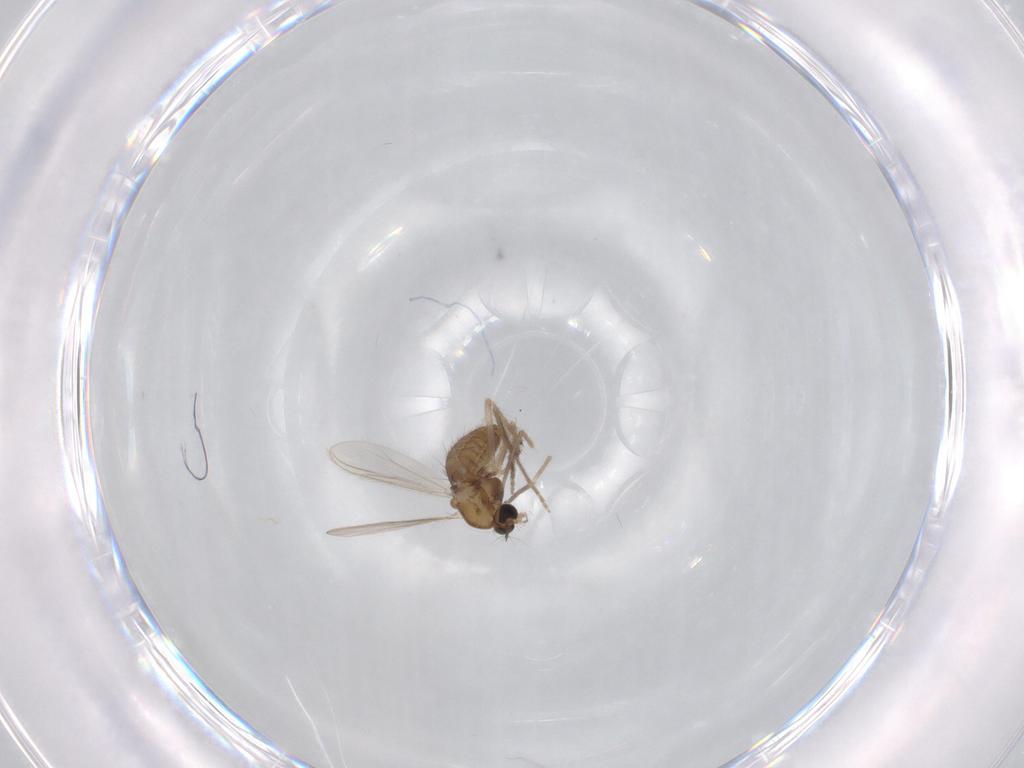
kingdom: Animalia
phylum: Arthropoda
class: Insecta
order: Diptera
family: Chironomidae
